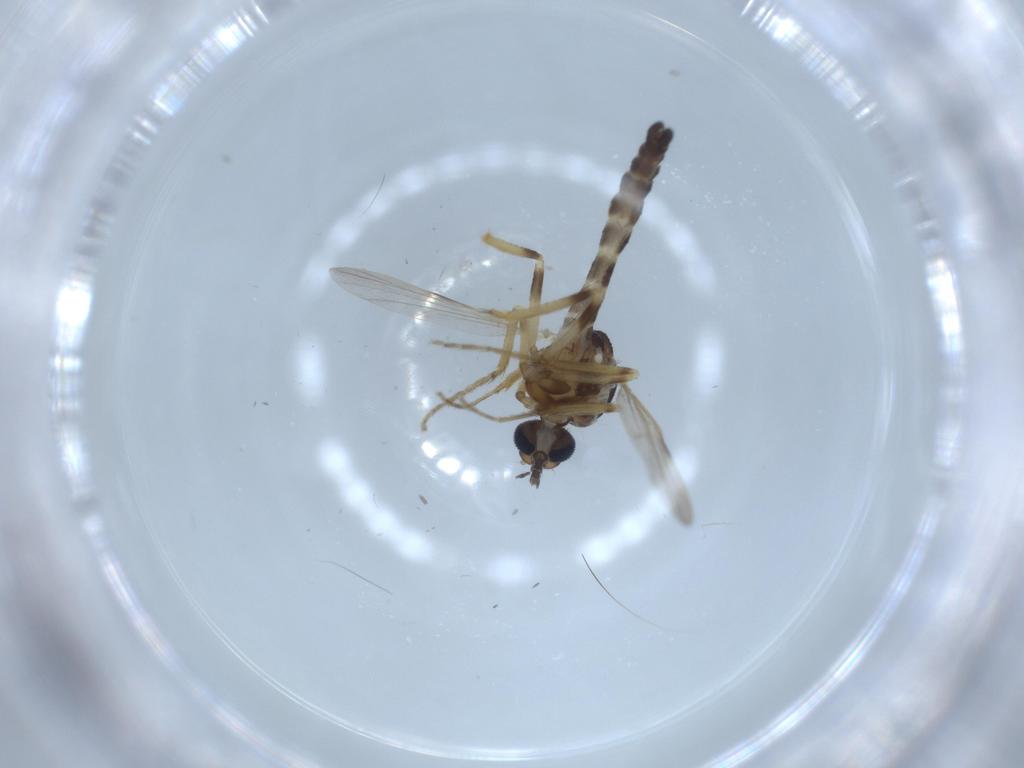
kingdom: Animalia
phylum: Arthropoda
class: Insecta
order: Diptera
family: Ceratopogonidae
